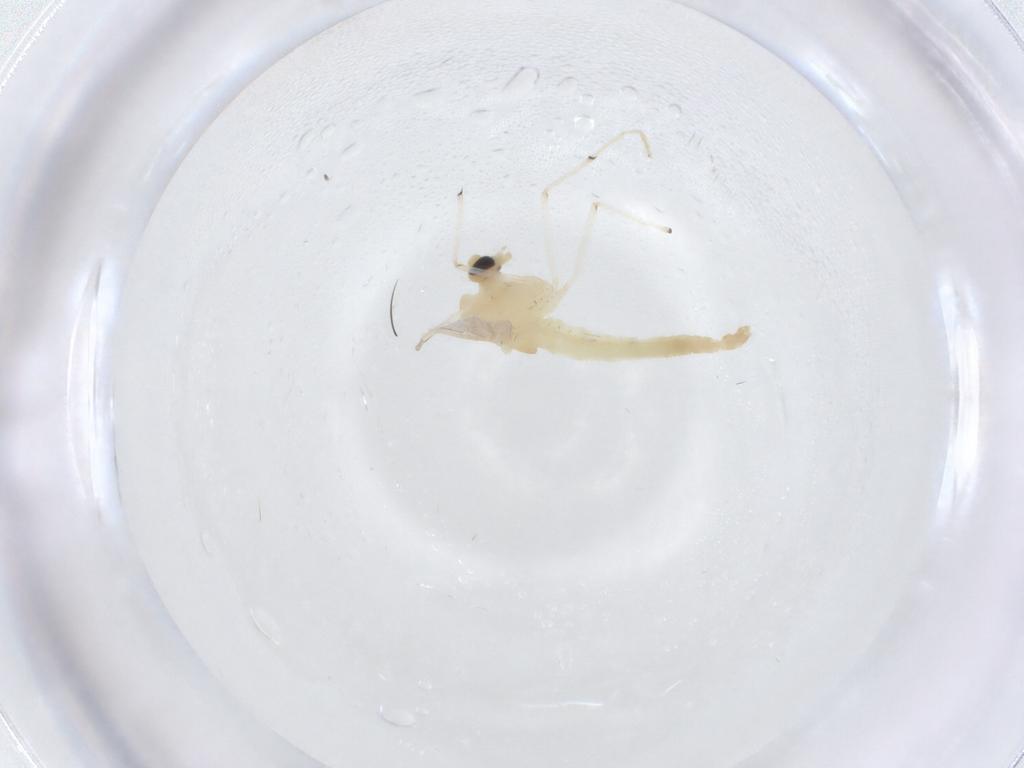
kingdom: Animalia
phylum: Arthropoda
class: Insecta
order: Diptera
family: Chironomidae
